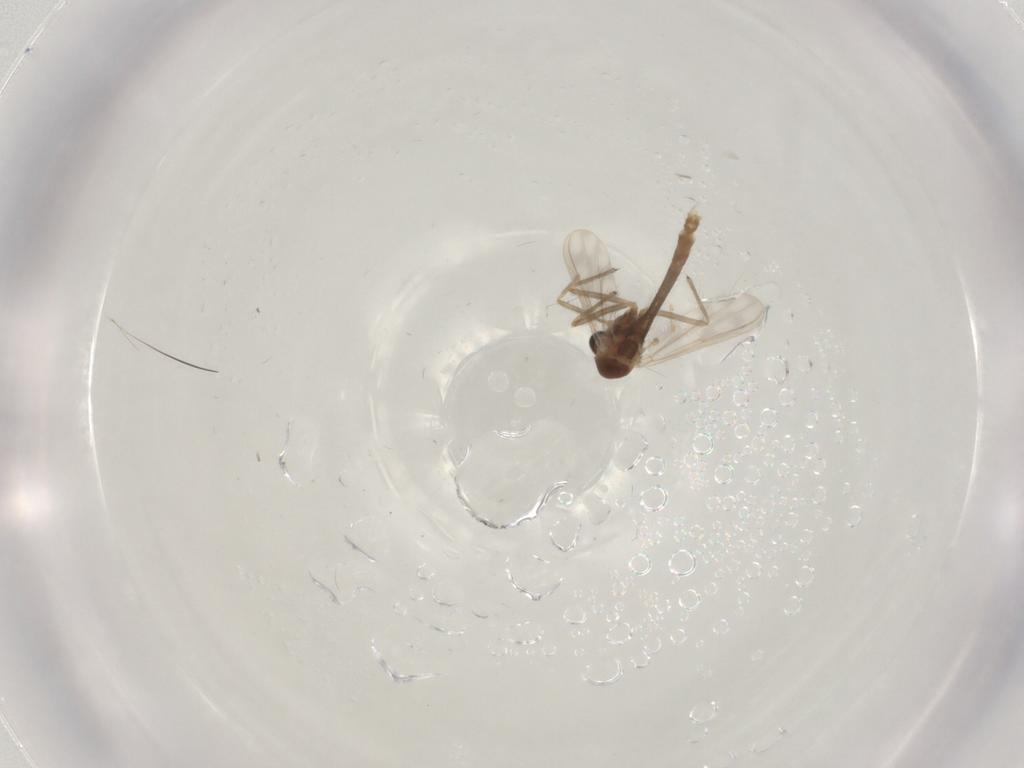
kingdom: Animalia
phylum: Arthropoda
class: Insecta
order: Diptera
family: Chironomidae
